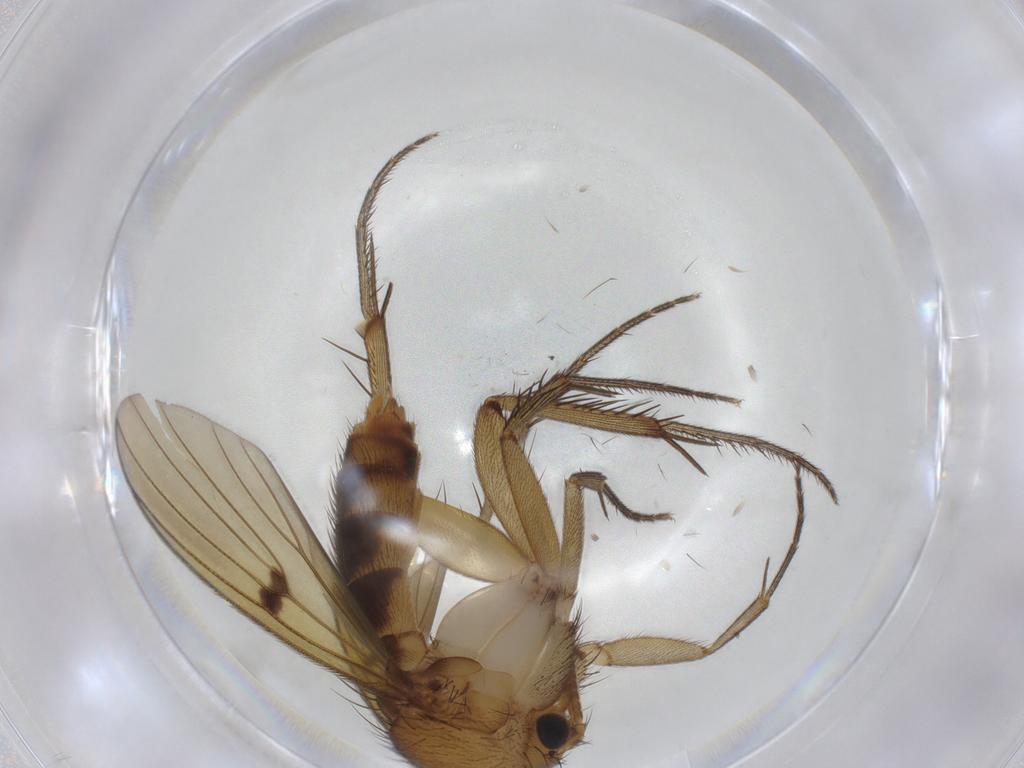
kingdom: Animalia
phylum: Arthropoda
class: Insecta
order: Diptera
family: Mycetophilidae
